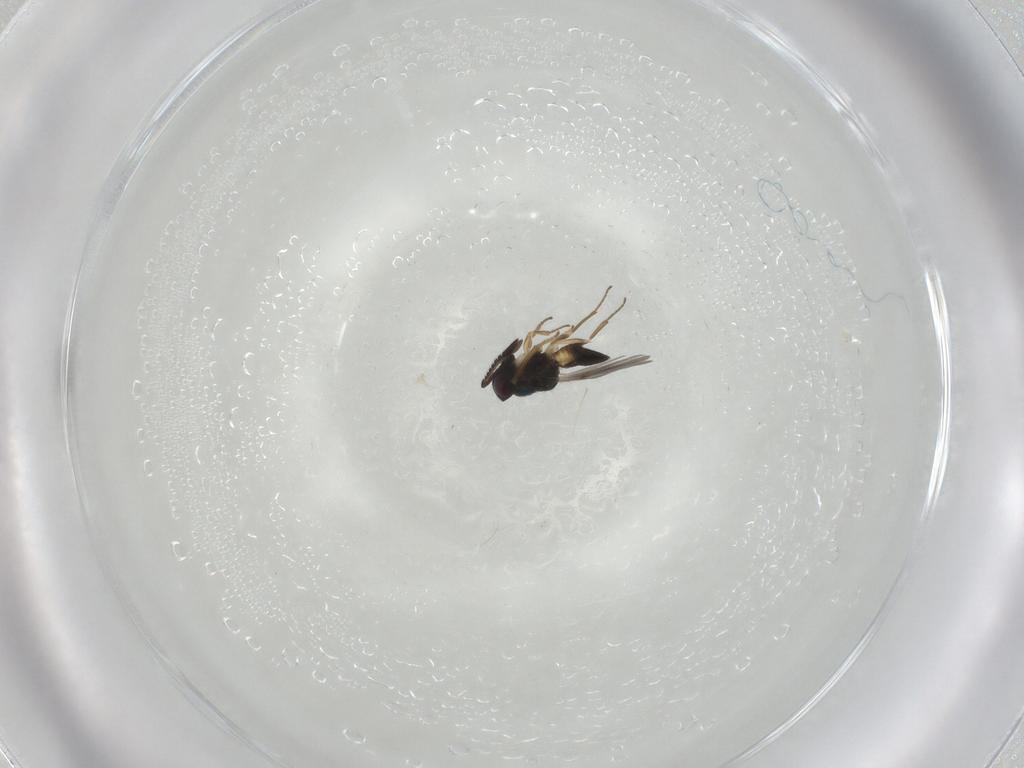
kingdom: Animalia
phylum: Arthropoda
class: Insecta
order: Hymenoptera
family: Encyrtidae
